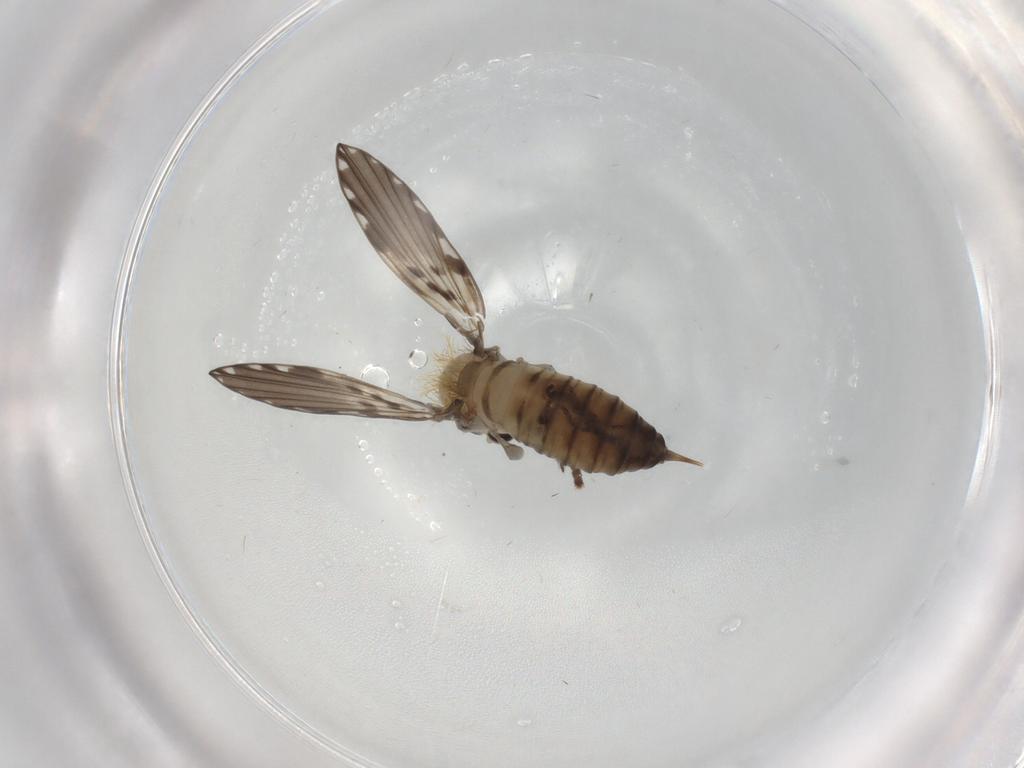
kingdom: Animalia
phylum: Arthropoda
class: Insecta
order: Diptera
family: Psychodidae
